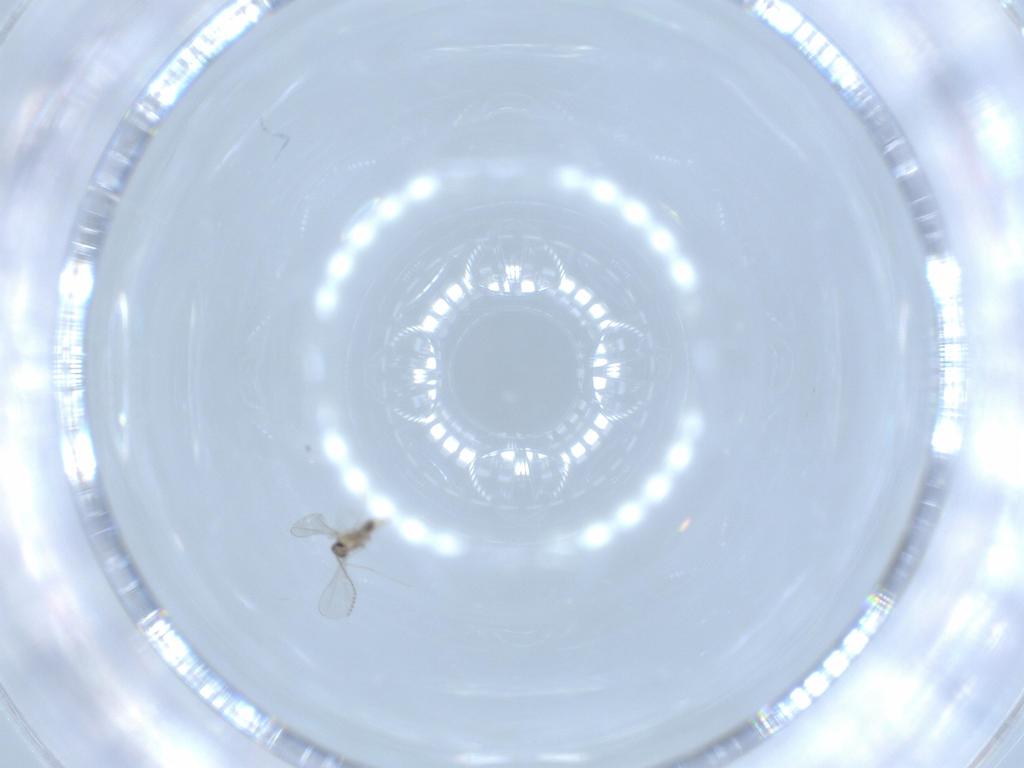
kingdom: Animalia
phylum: Arthropoda
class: Insecta
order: Diptera
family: Cecidomyiidae
